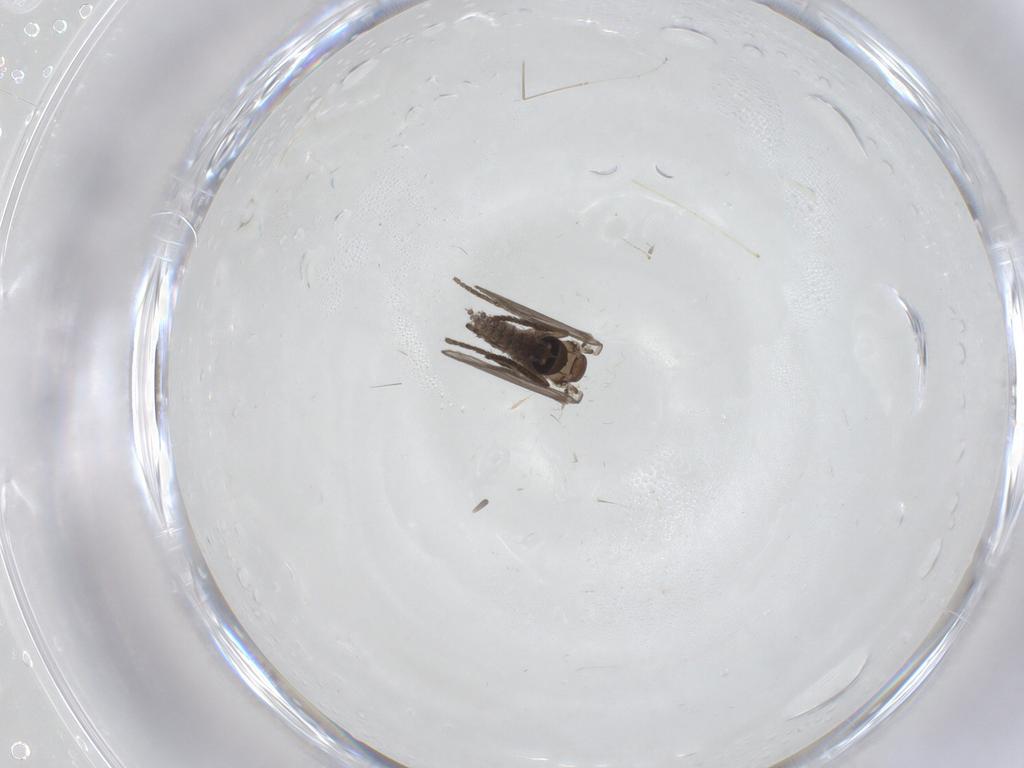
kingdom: Animalia
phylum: Arthropoda
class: Insecta
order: Diptera
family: Psychodidae
